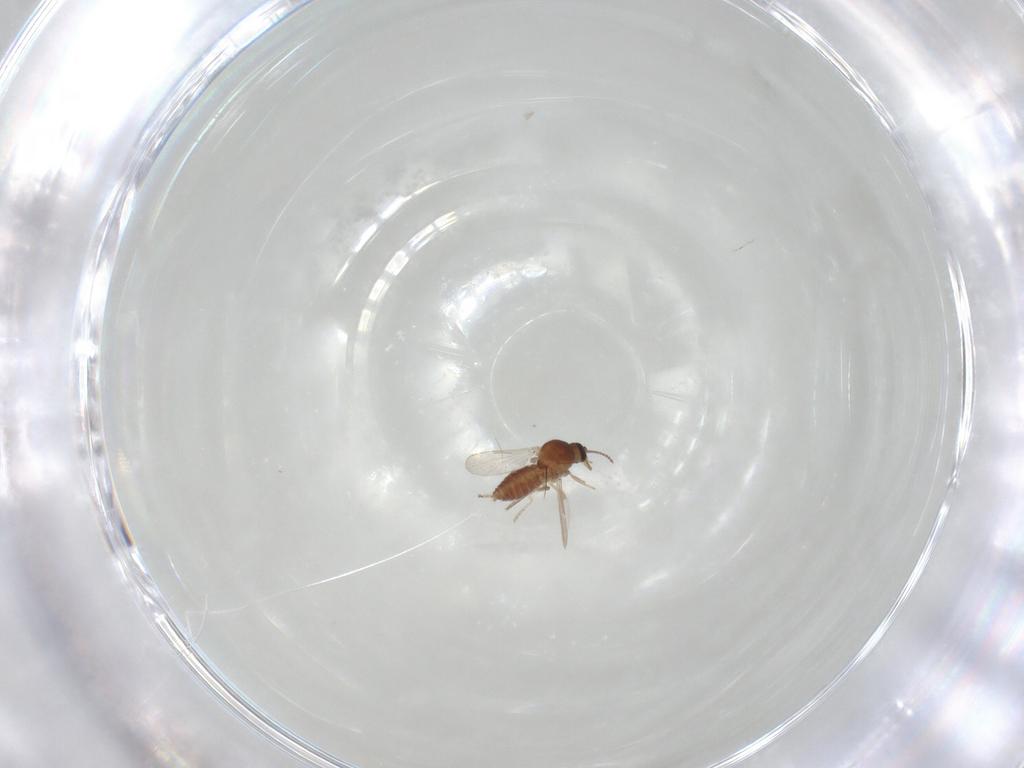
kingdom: Animalia
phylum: Arthropoda
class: Insecta
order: Diptera
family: Ceratopogonidae
